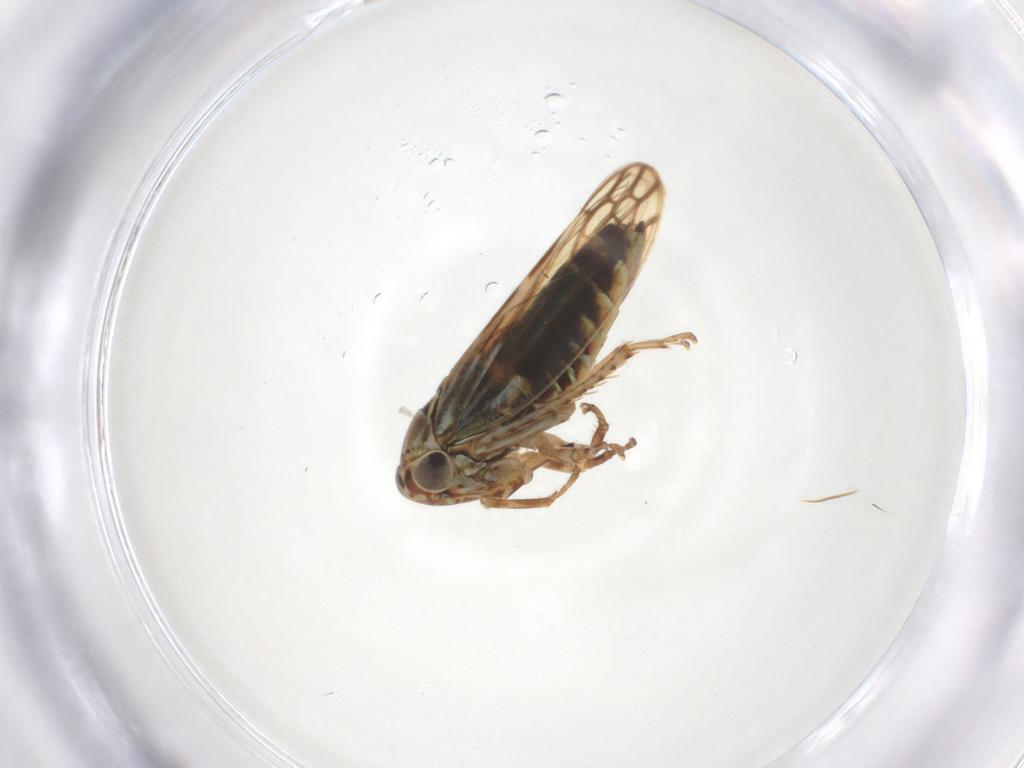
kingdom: Animalia
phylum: Arthropoda
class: Insecta
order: Hemiptera
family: Cicadellidae
